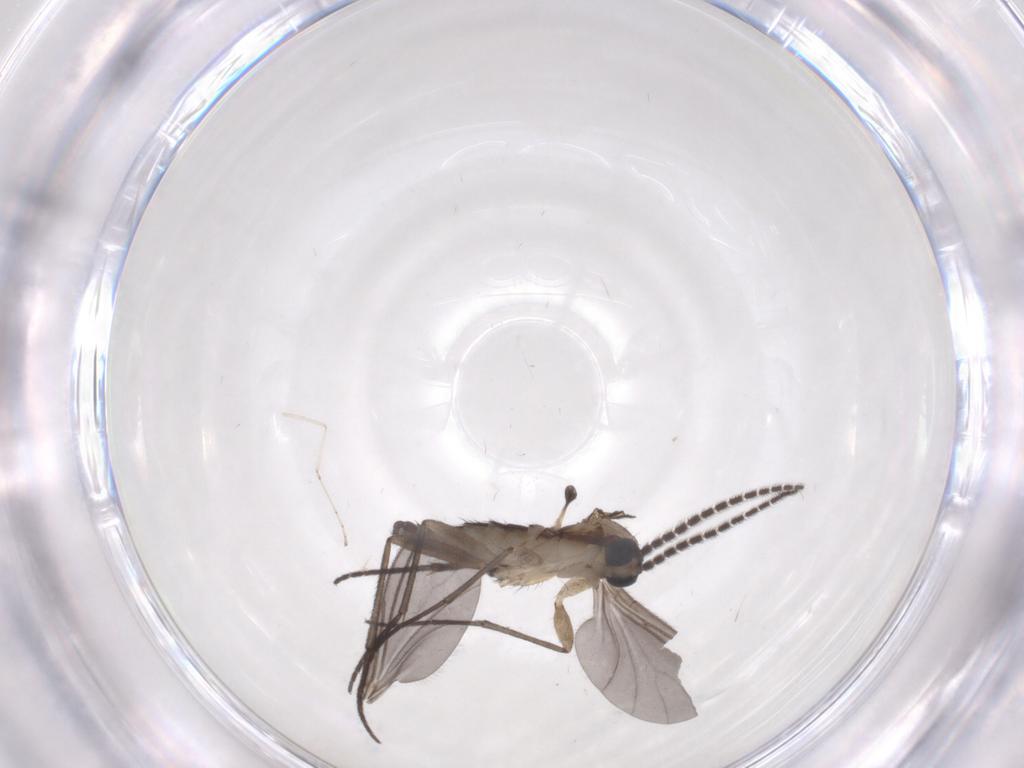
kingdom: Animalia
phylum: Arthropoda
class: Insecta
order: Diptera
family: Sciaridae
